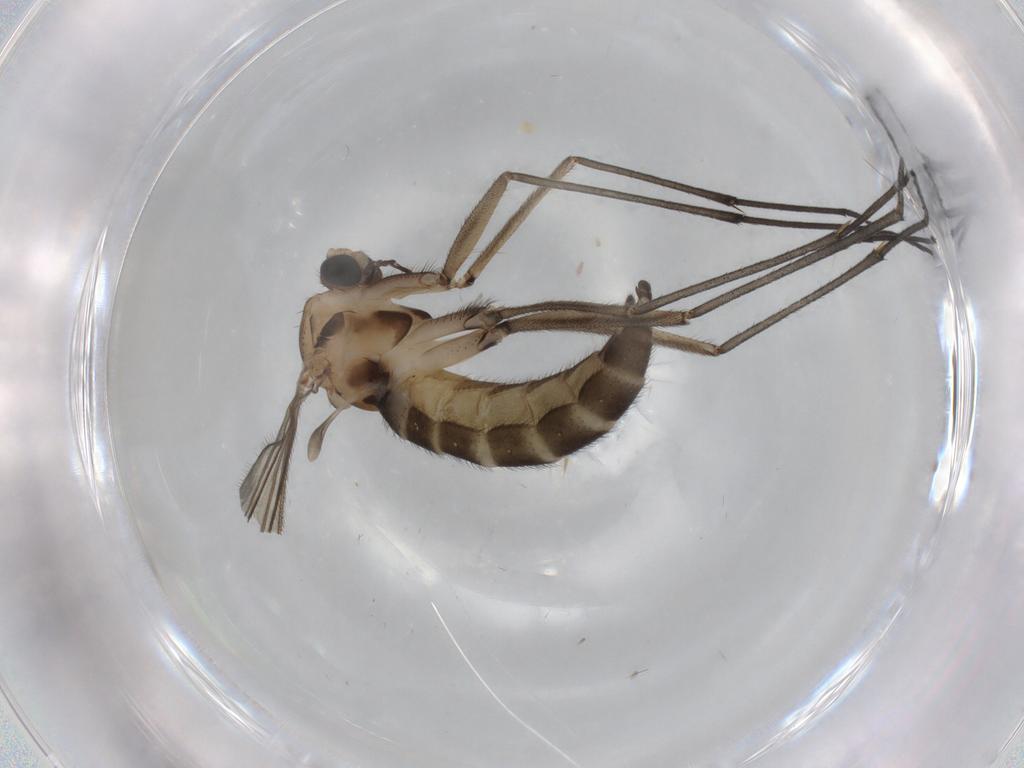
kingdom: Animalia
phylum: Arthropoda
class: Insecta
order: Diptera
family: Sciaridae
